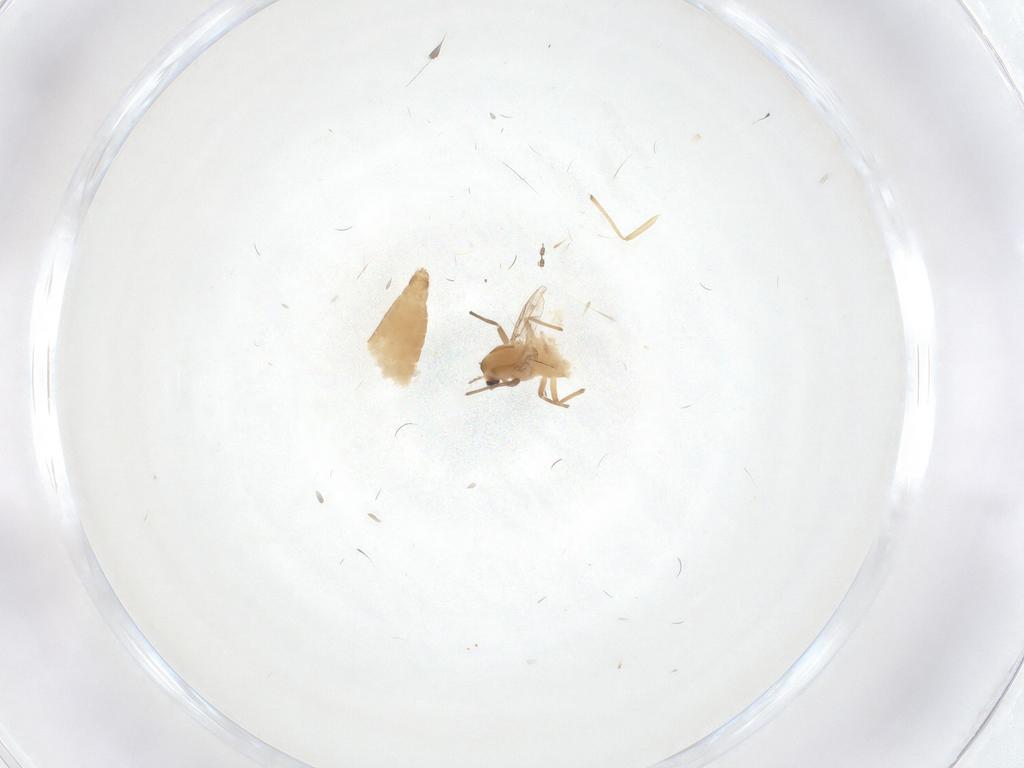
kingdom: Animalia
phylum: Arthropoda
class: Insecta
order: Diptera
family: Chironomidae
